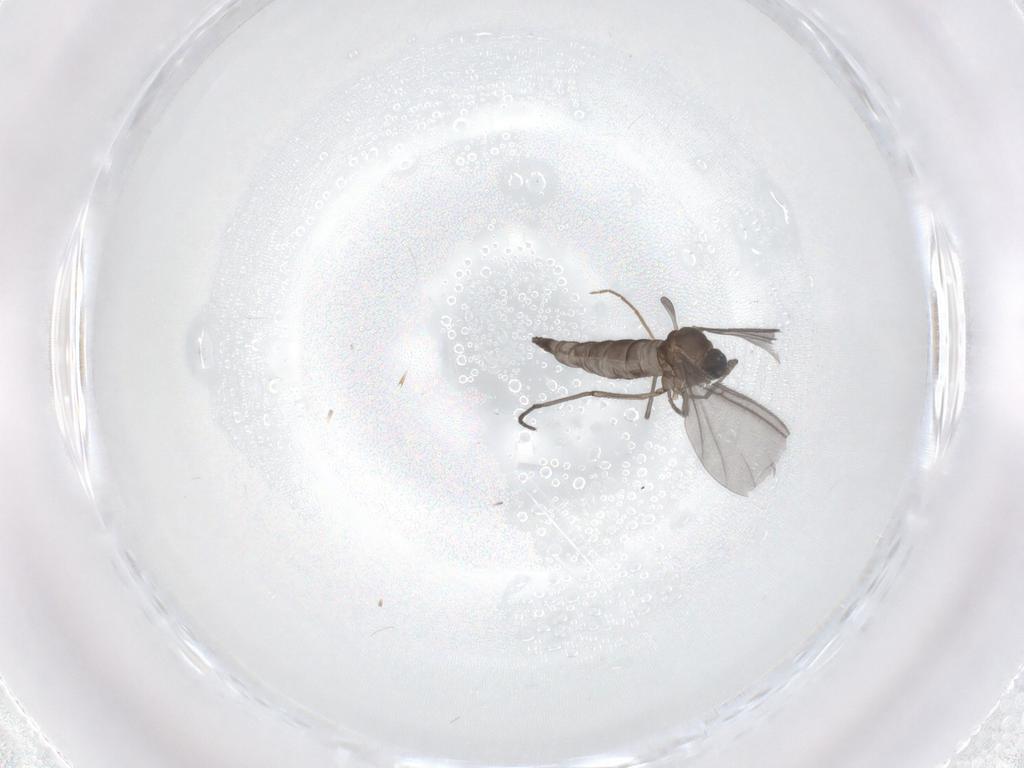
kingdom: Animalia
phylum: Arthropoda
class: Insecta
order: Diptera
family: Sciaridae
